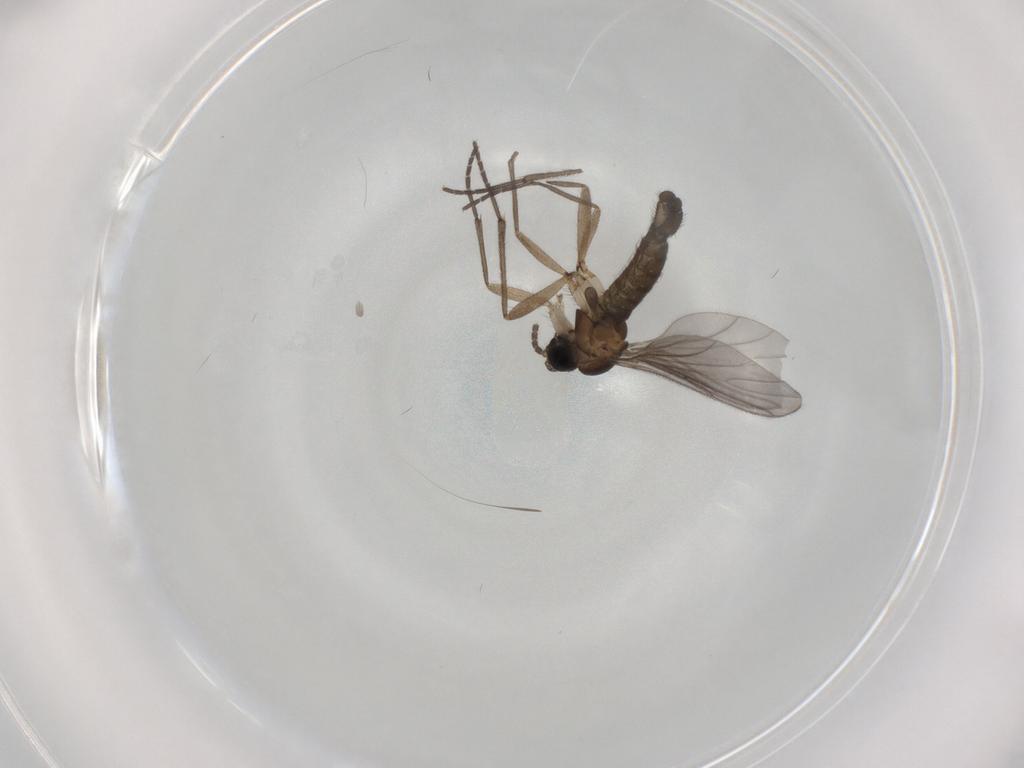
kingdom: Animalia
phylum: Arthropoda
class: Insecta
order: Diptera
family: Sciaridae
